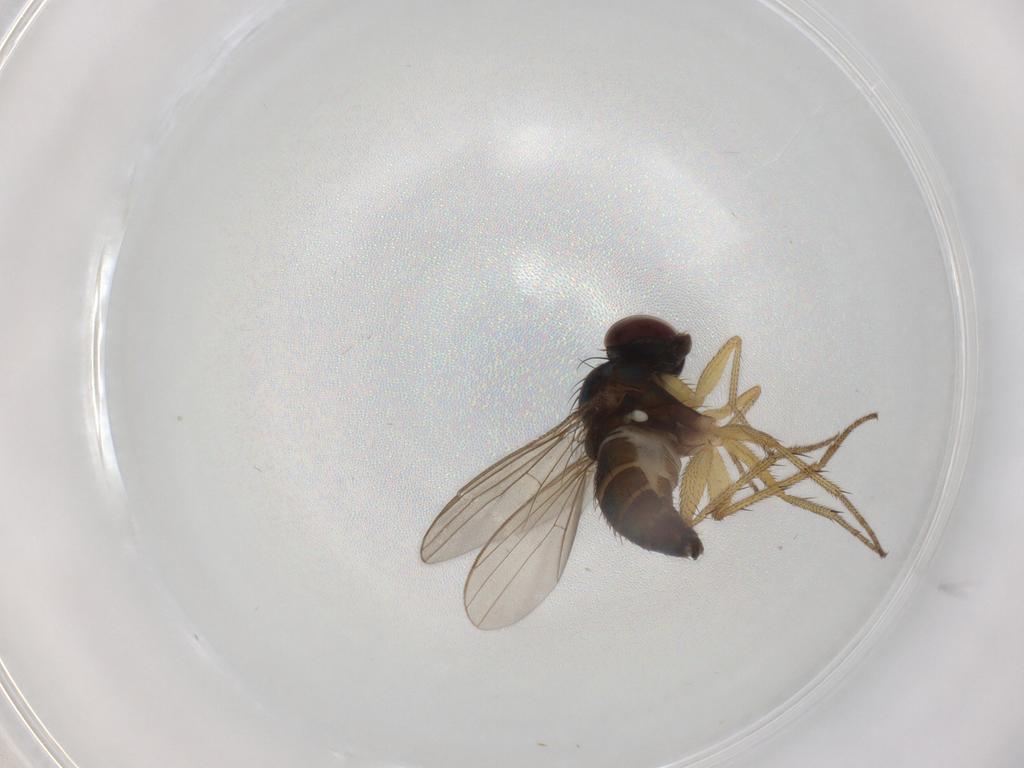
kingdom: Animalia
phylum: Arthropoda
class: Insecta
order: Diptera
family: Dolichopodidae
